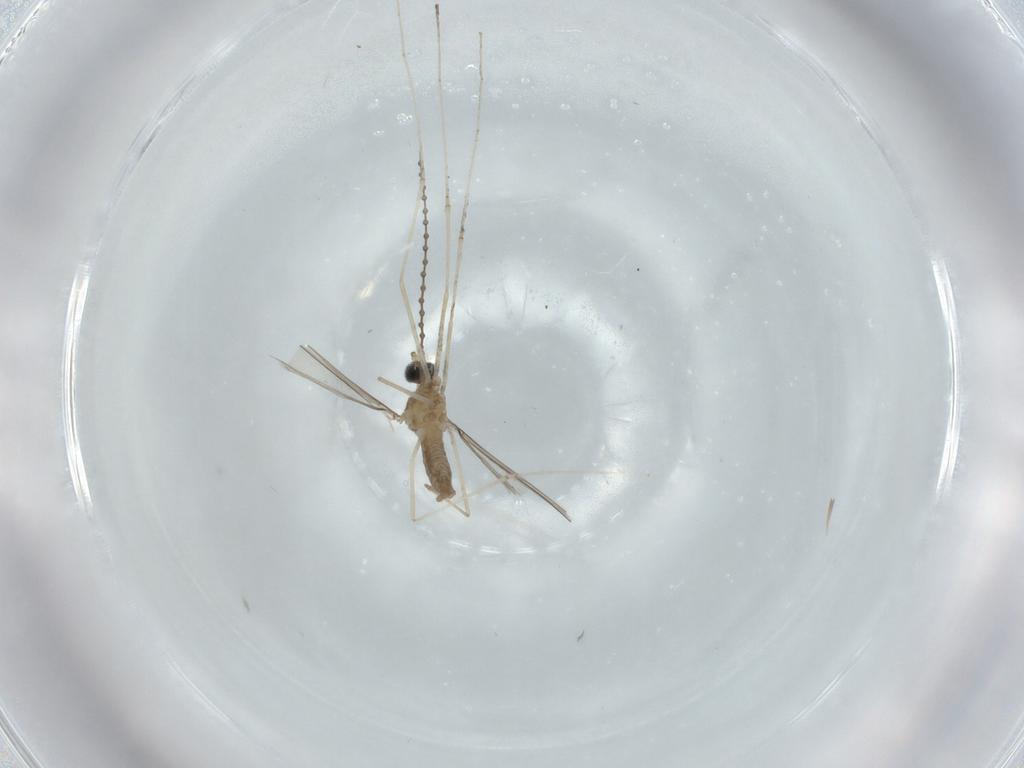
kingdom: Animalia
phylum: Arthropoda
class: Insecta
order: Diptera
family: Cecidomyiidae
